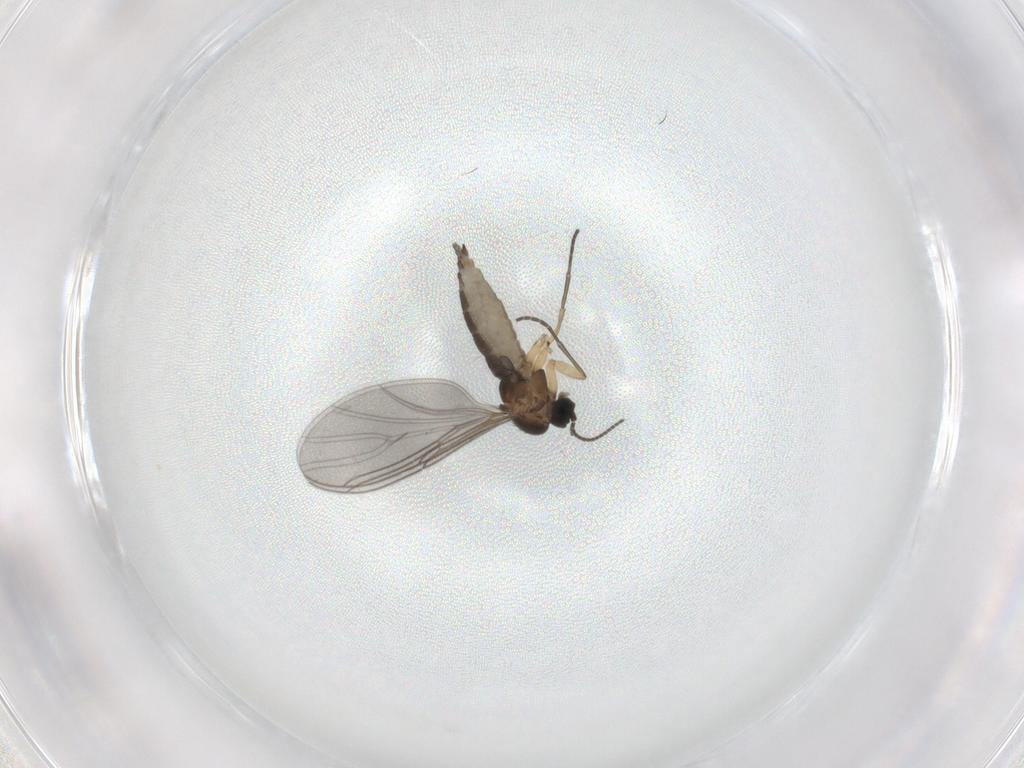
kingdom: Animalia
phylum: Arthropoda
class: Insecta
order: Diptera
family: Sciaridae
